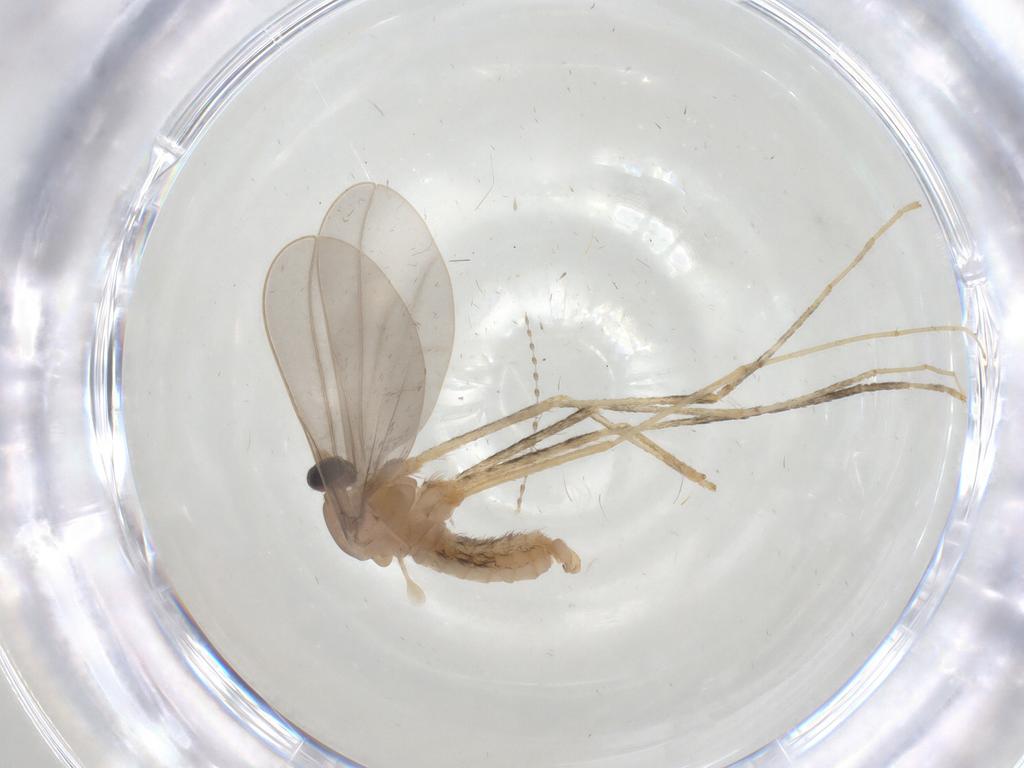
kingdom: Animalia
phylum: Arthropoda
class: Insecta
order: Diptera
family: Cecidomyiidae
